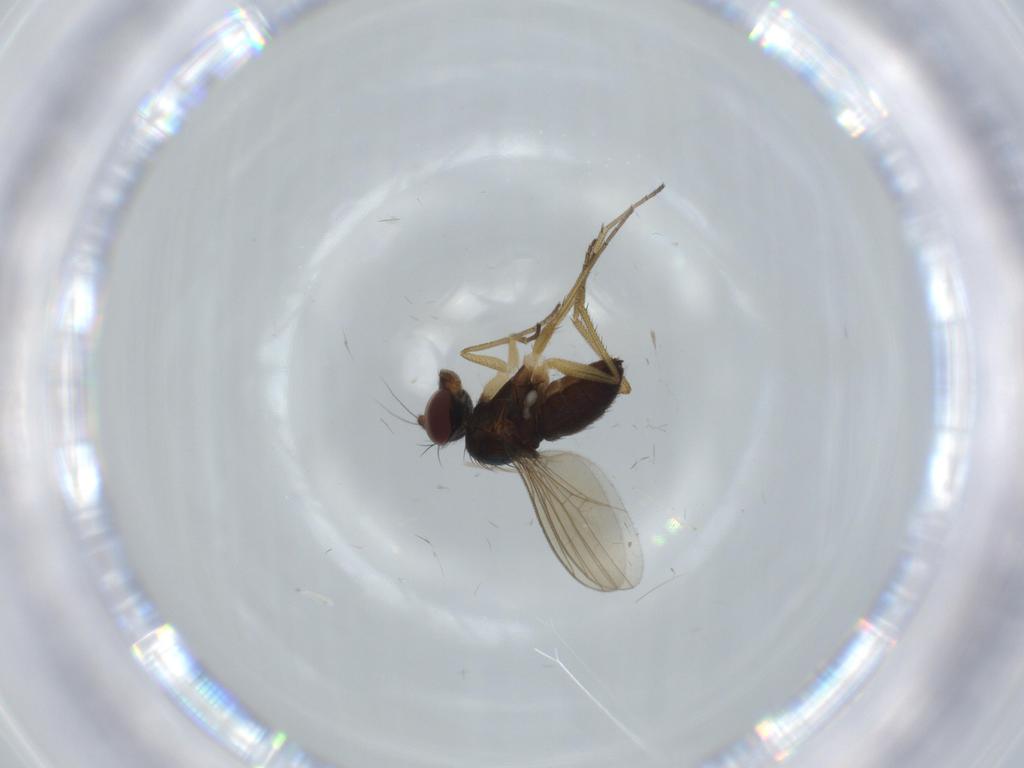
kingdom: Animalia
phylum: Arthropoda
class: Insecta
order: Diptera
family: Dolichopodidae
